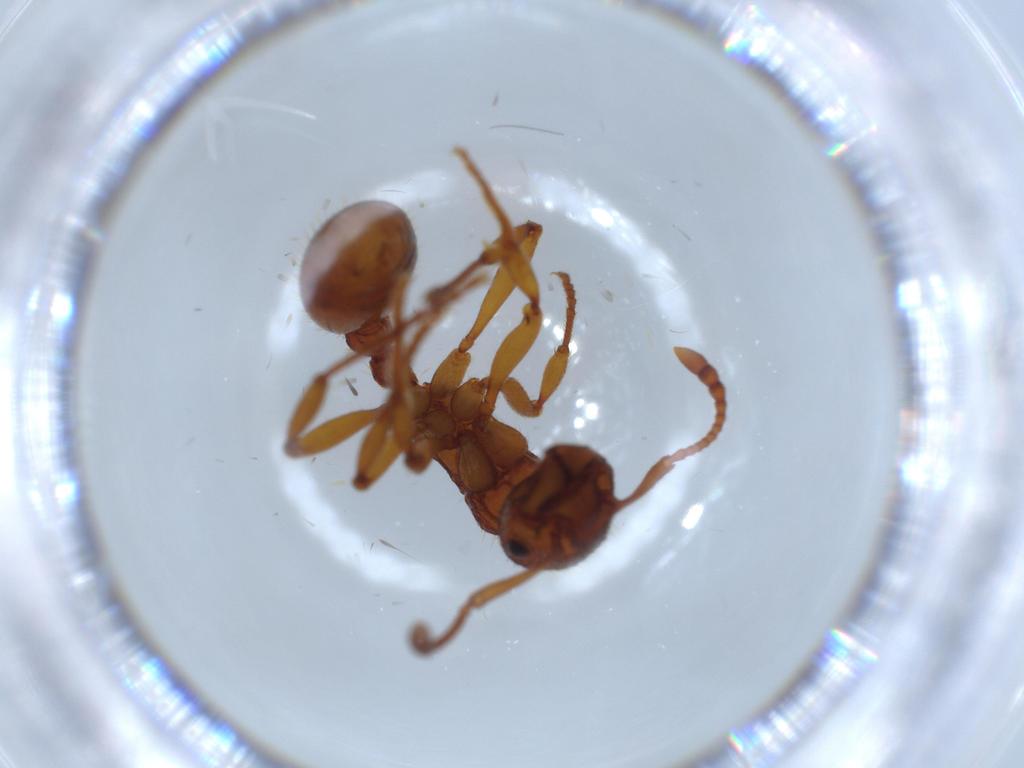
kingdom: Animalia
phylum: Arthropoda
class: Insecta
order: Hymenoptera
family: Formicidae
